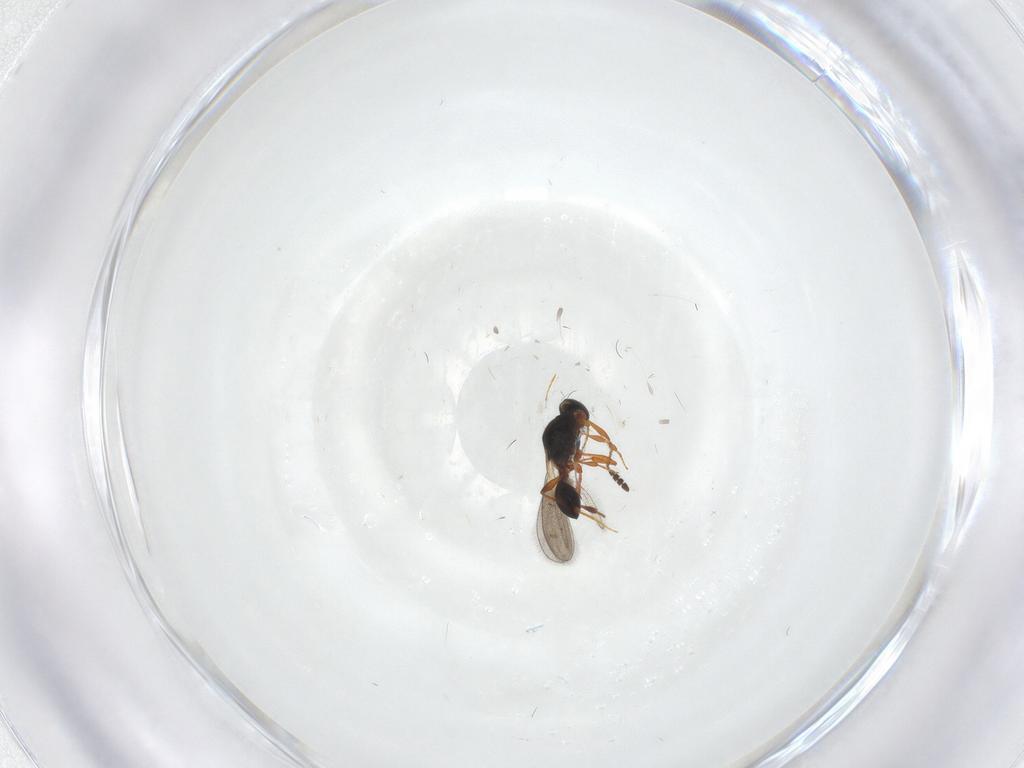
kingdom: Animalia
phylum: Arthropoda
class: Insecta
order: Hymenoptera
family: Platygastridae
